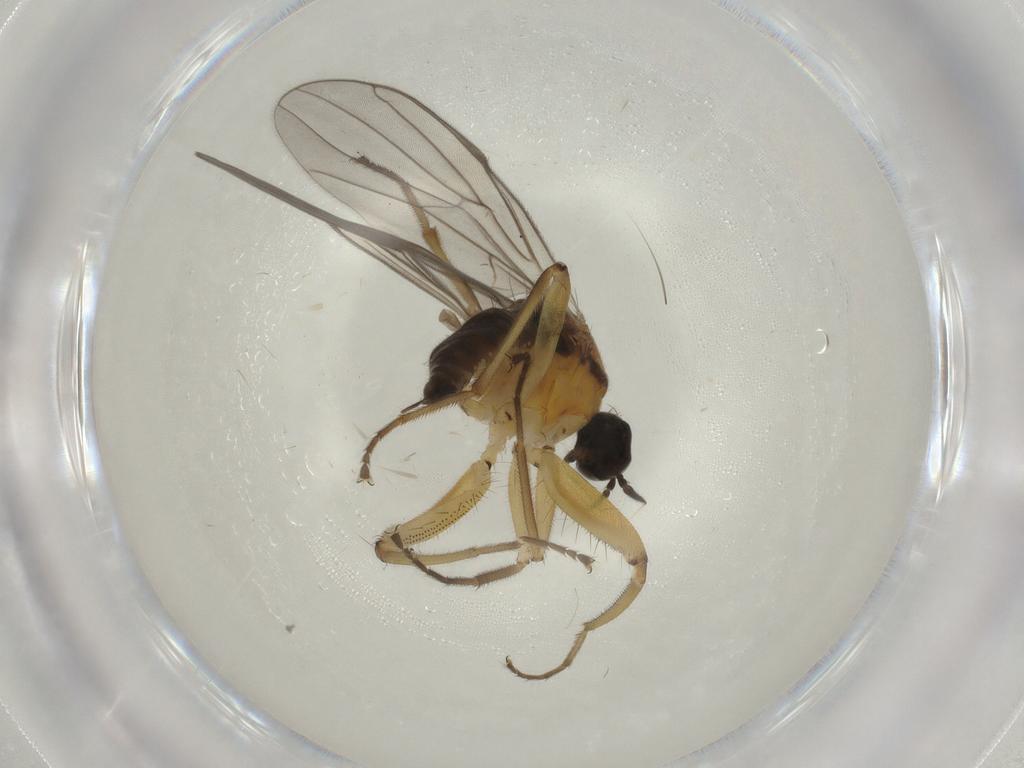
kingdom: Animalia
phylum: Arthropoda
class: Insecta
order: Diptera
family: Hybotidae
